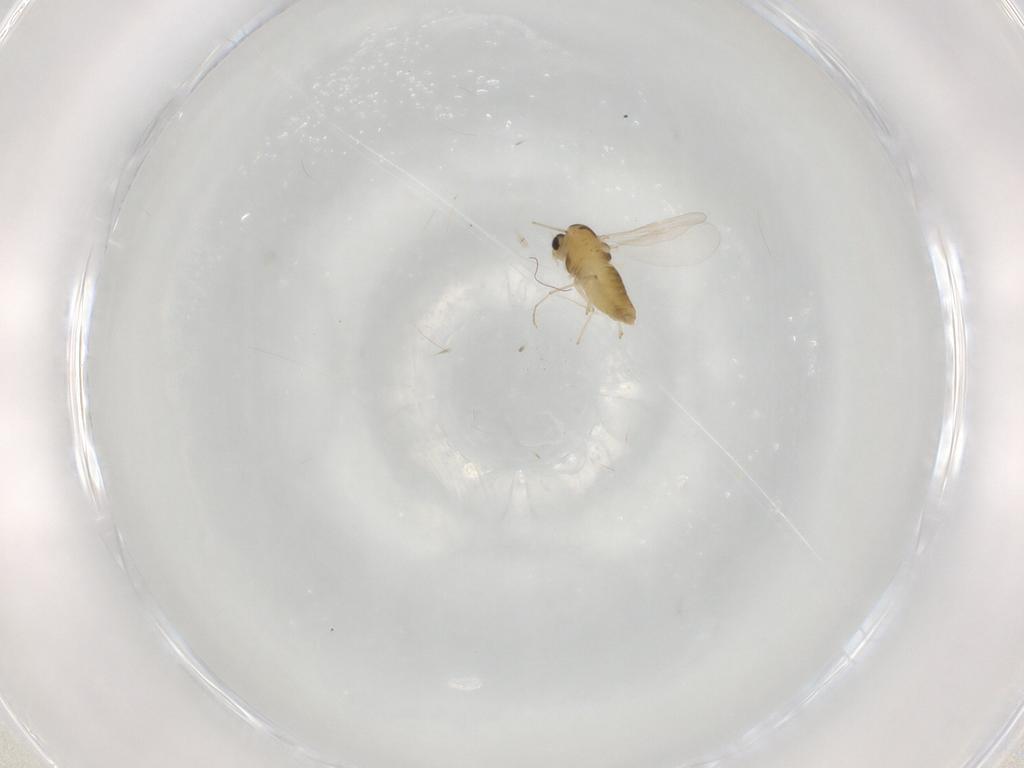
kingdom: Animalia
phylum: Arthropoda
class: Insecta
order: Diptera
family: Chironomidae
